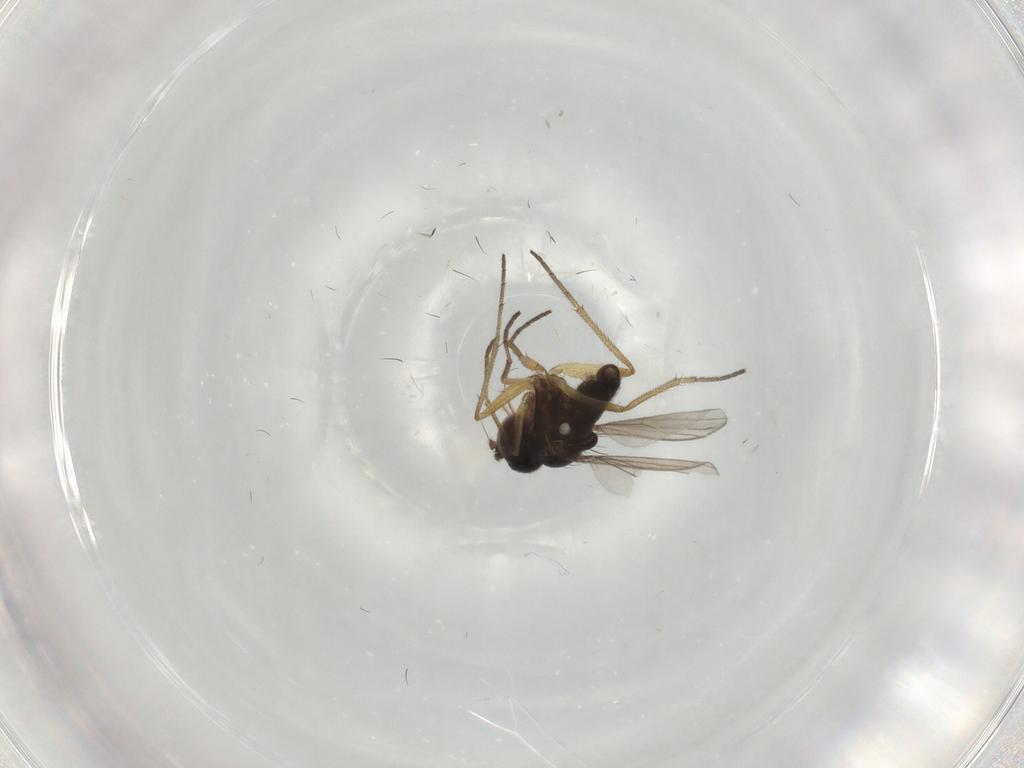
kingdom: Animalia
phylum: Arthropoda
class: Insecta
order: Diptera
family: Dolichopodidae
